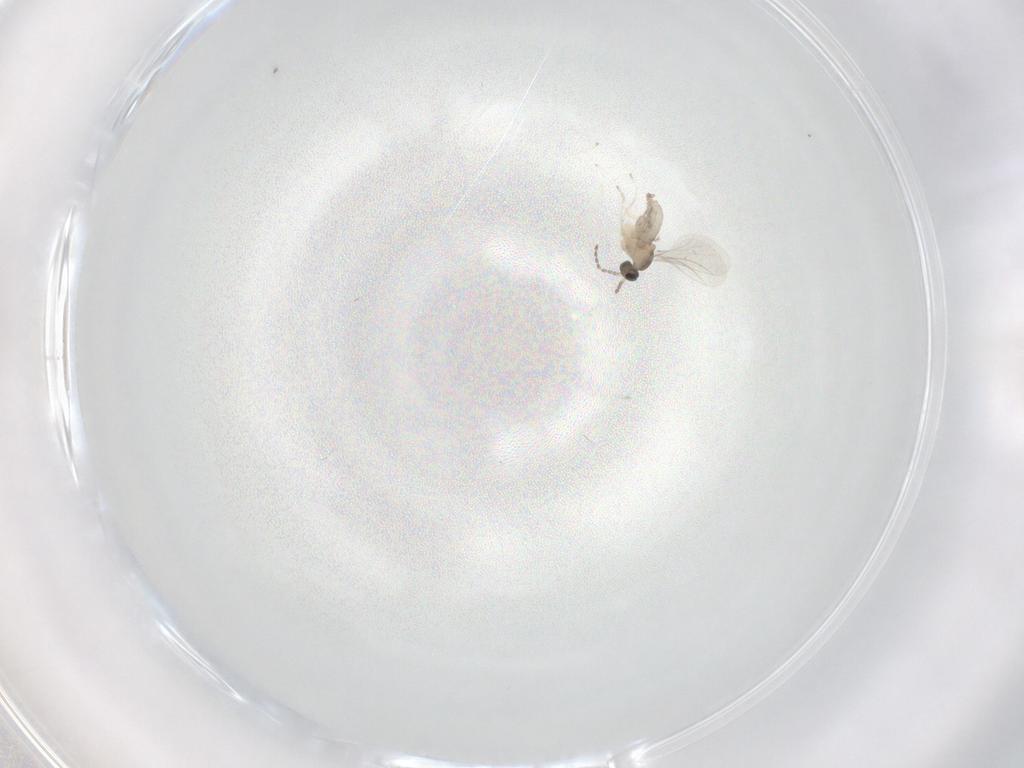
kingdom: Animalia
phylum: Arthropoda
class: Insecta
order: Diptera
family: Cecidomyiidae
